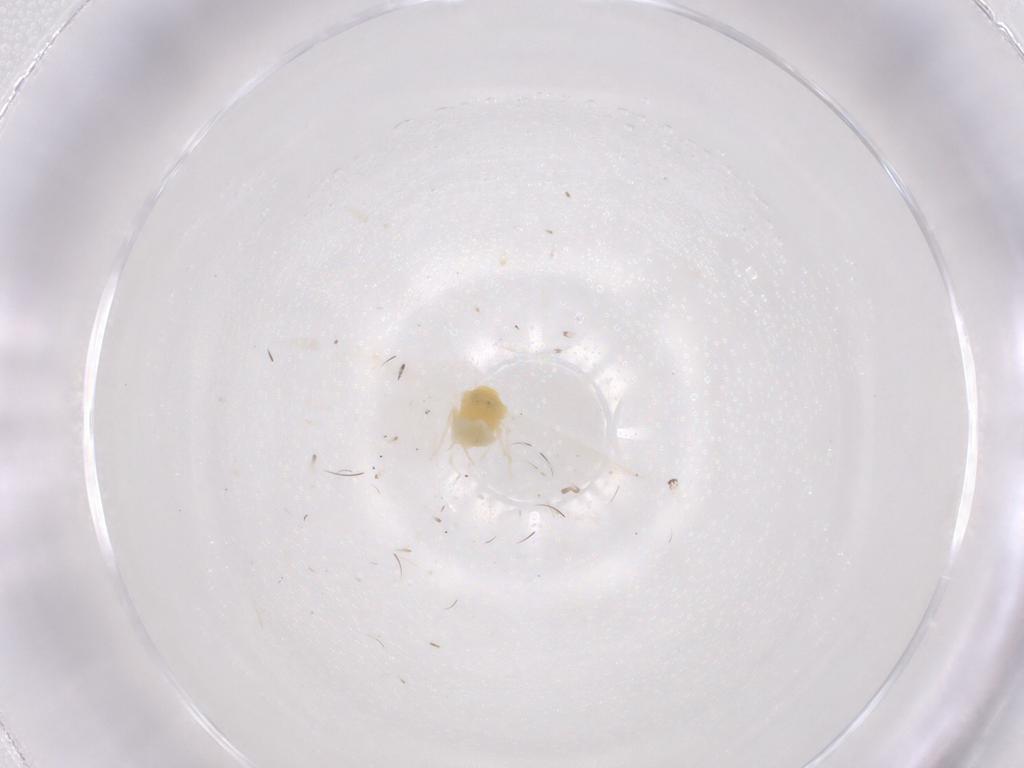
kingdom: Animalia
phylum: Arthropoda
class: Insecta
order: Hemiptera
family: Aleyrodidae
